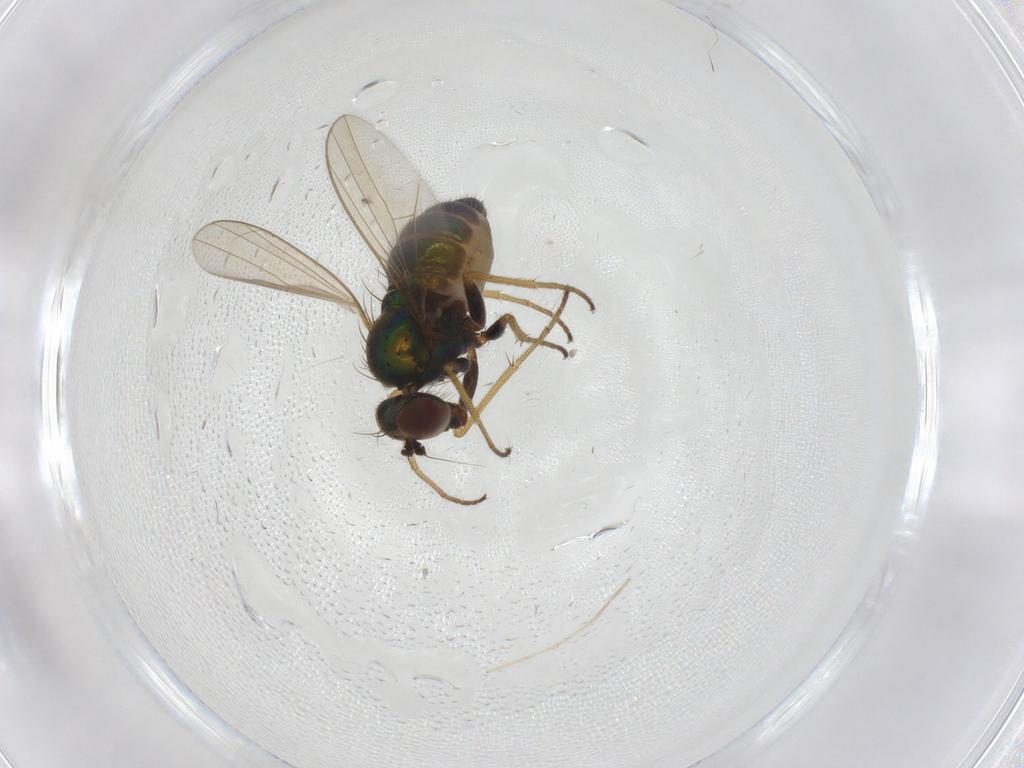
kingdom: Animalia
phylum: Arthropoda
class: Insecta
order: Diptera
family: Dolichopodidae
